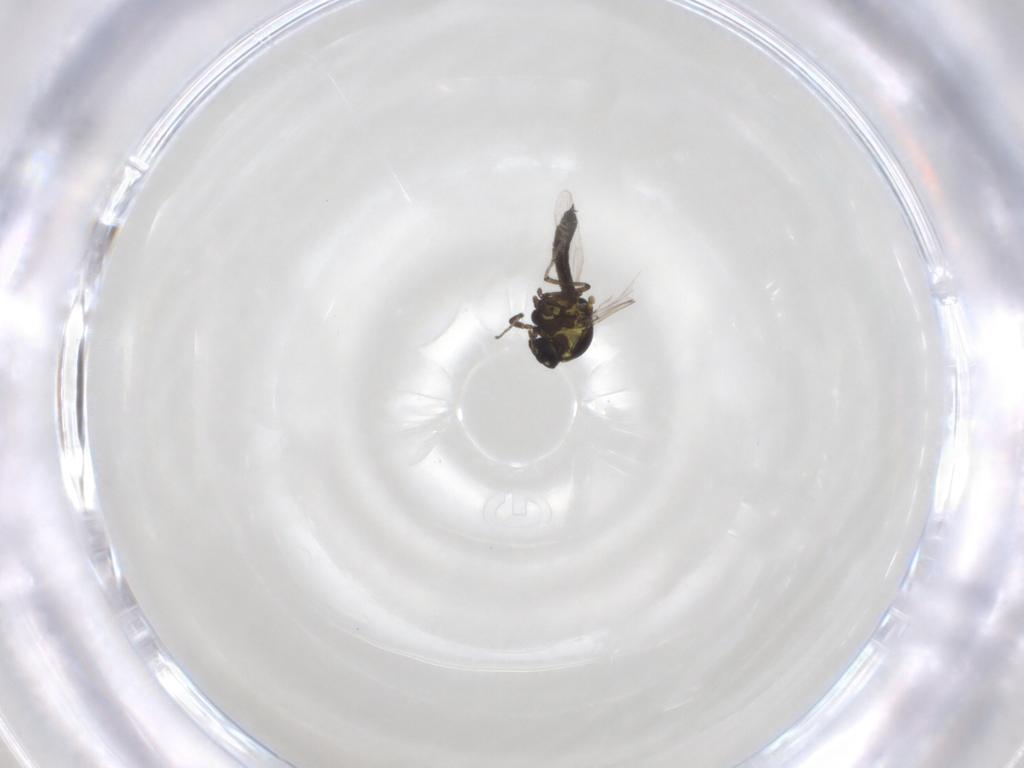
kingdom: Animalia
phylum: Arthropoda
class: Insecta
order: Diptera
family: Ceratopogonidae
